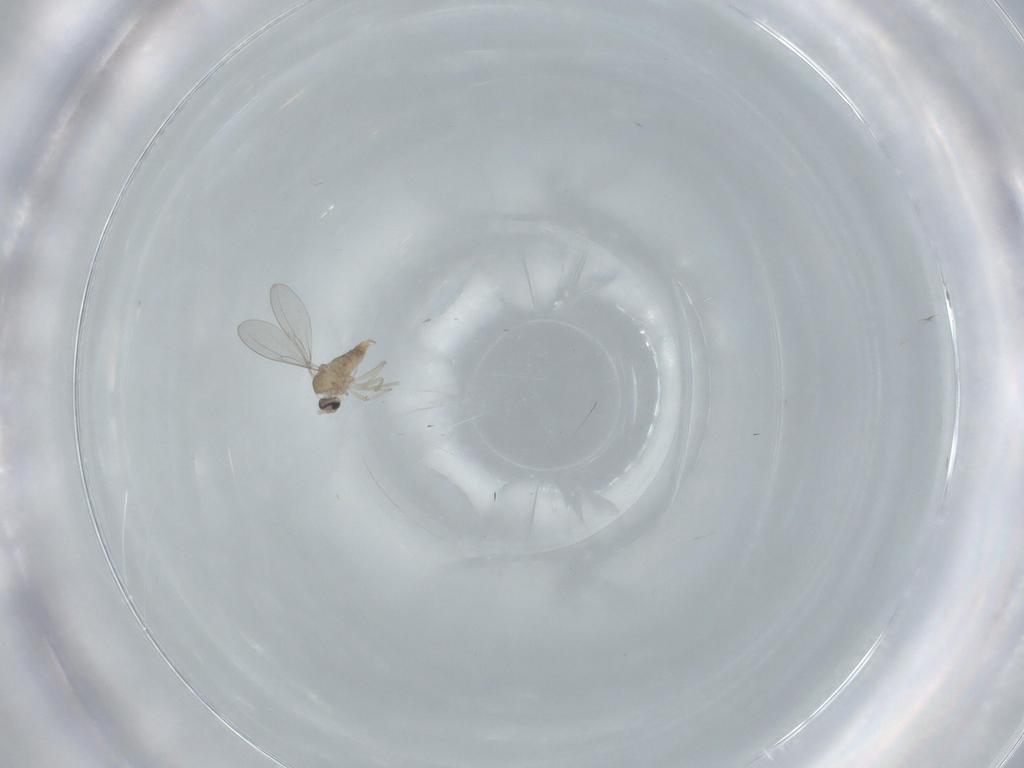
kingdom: Animalia
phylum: Arthropoda
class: Insecta
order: Diptera
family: Cecidomyiidae
